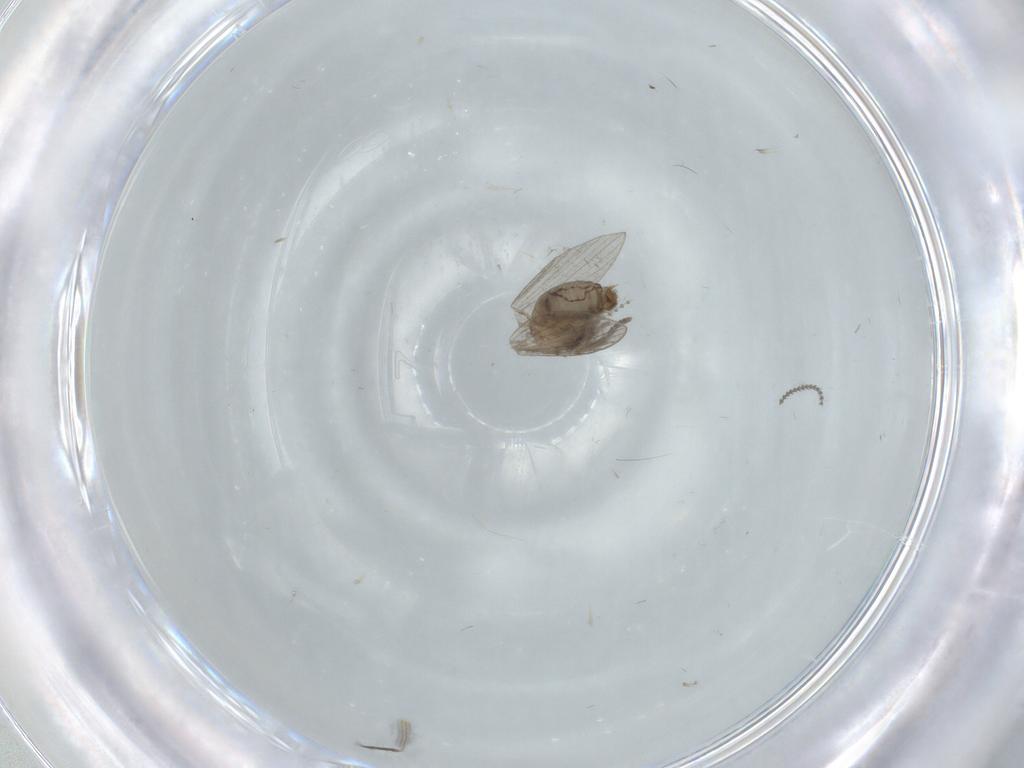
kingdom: Animalia
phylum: Arthropoda
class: Insecta
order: Diptera
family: Psychodidae
